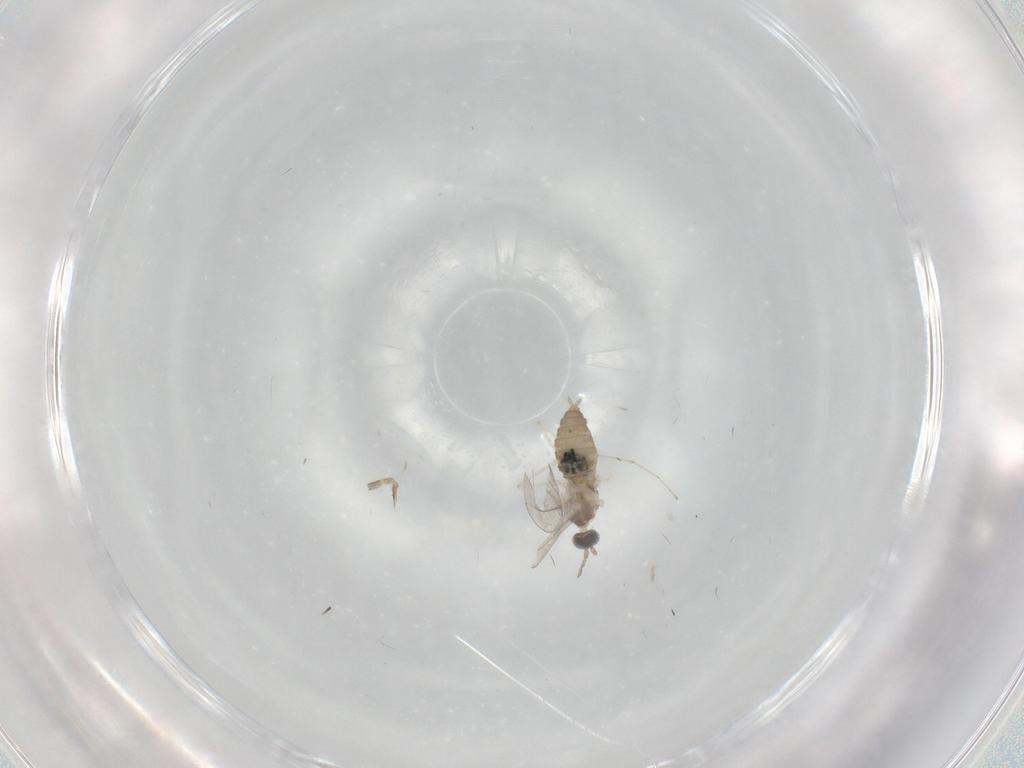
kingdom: Animalia
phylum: Arthropoda
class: Insecta
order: Diptera
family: Cecidomyiidae
